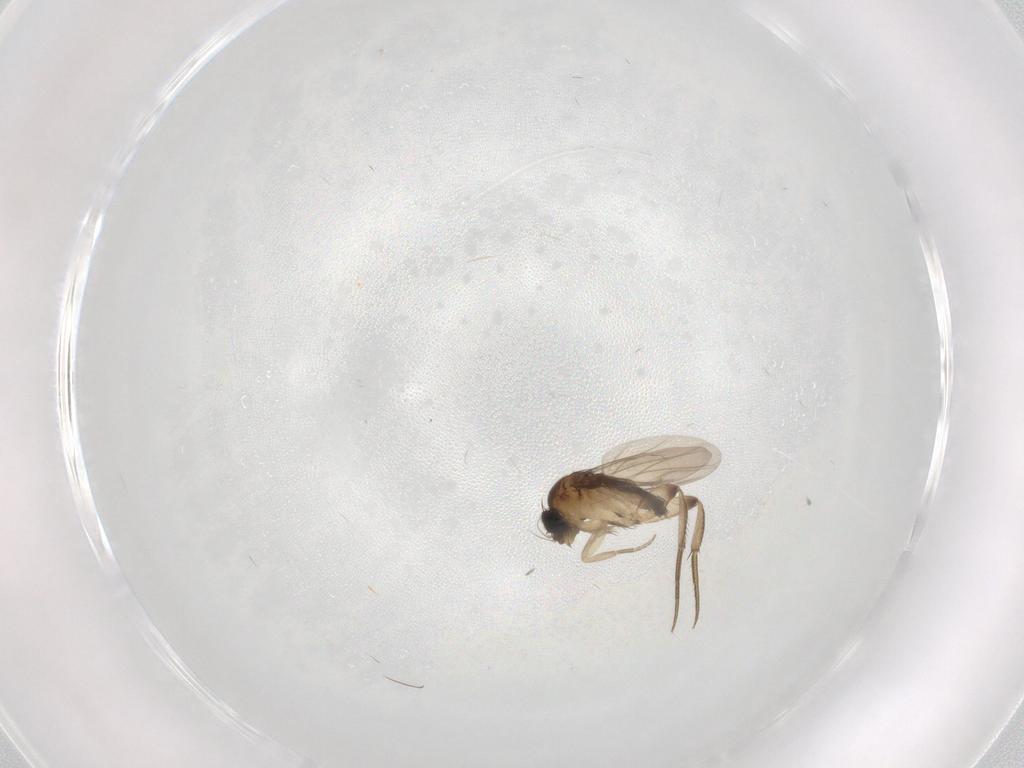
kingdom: Animalia
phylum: Arthropoda
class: Insecta
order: Diptera
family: Phoridae
